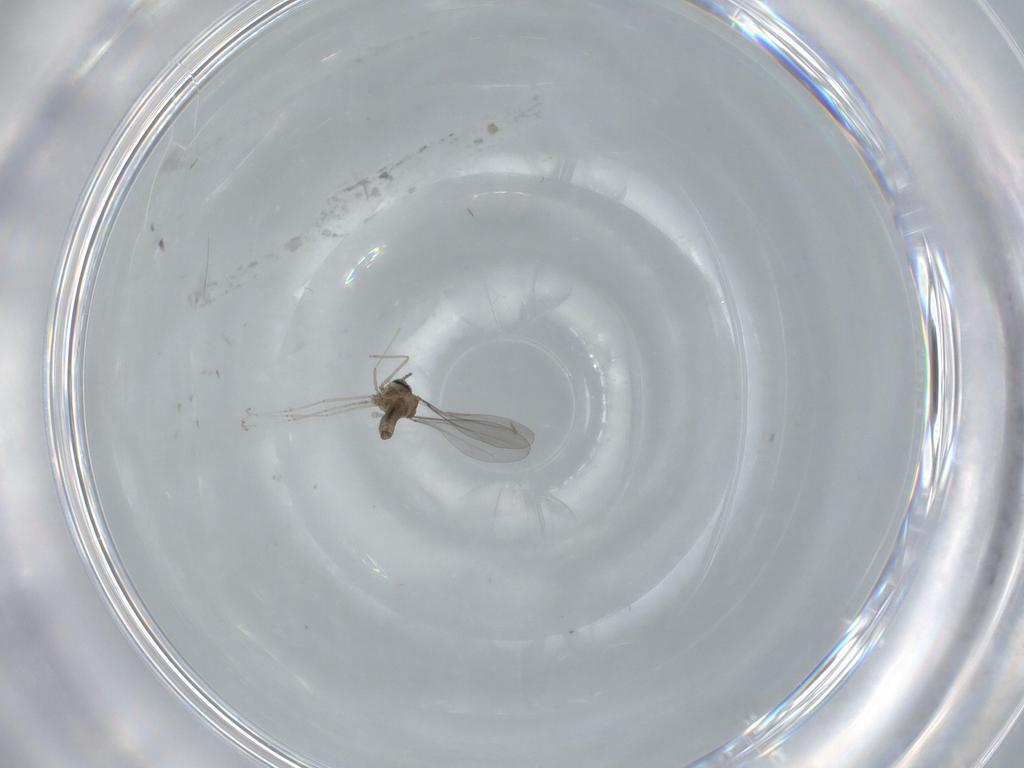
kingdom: Animalia
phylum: Arthropoda
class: Insecta
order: Diptera
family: Cecidomyiidae
